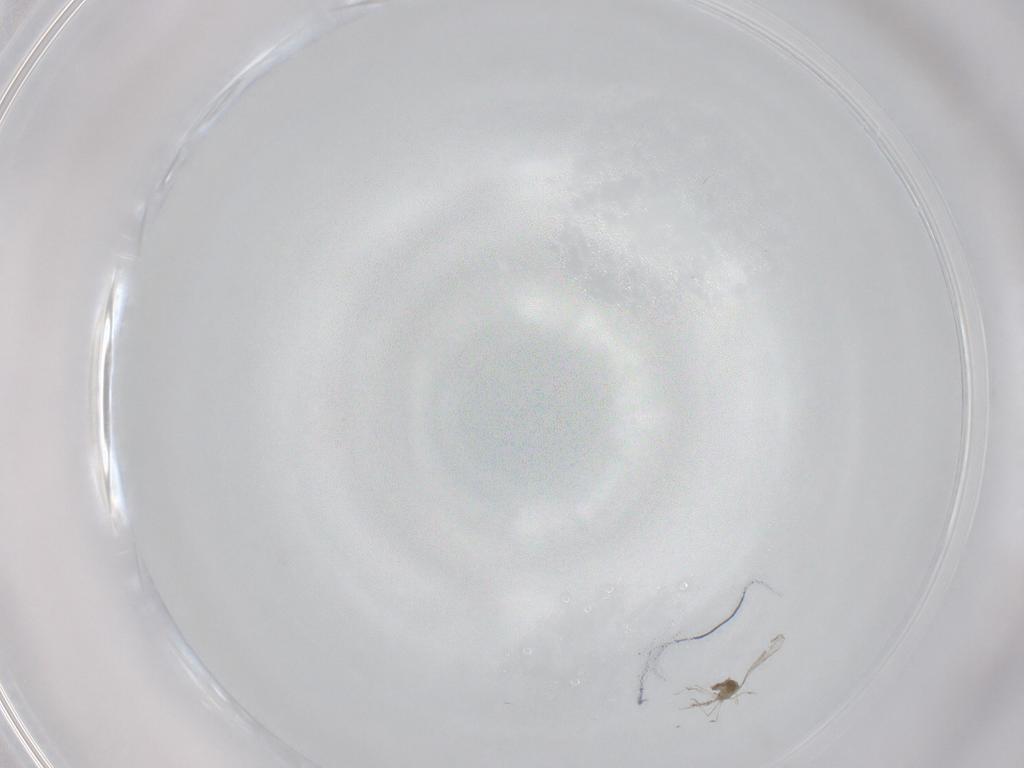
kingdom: Animalia
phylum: Arthropoda
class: Insecta
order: Diptera
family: Cecidomyiidae
